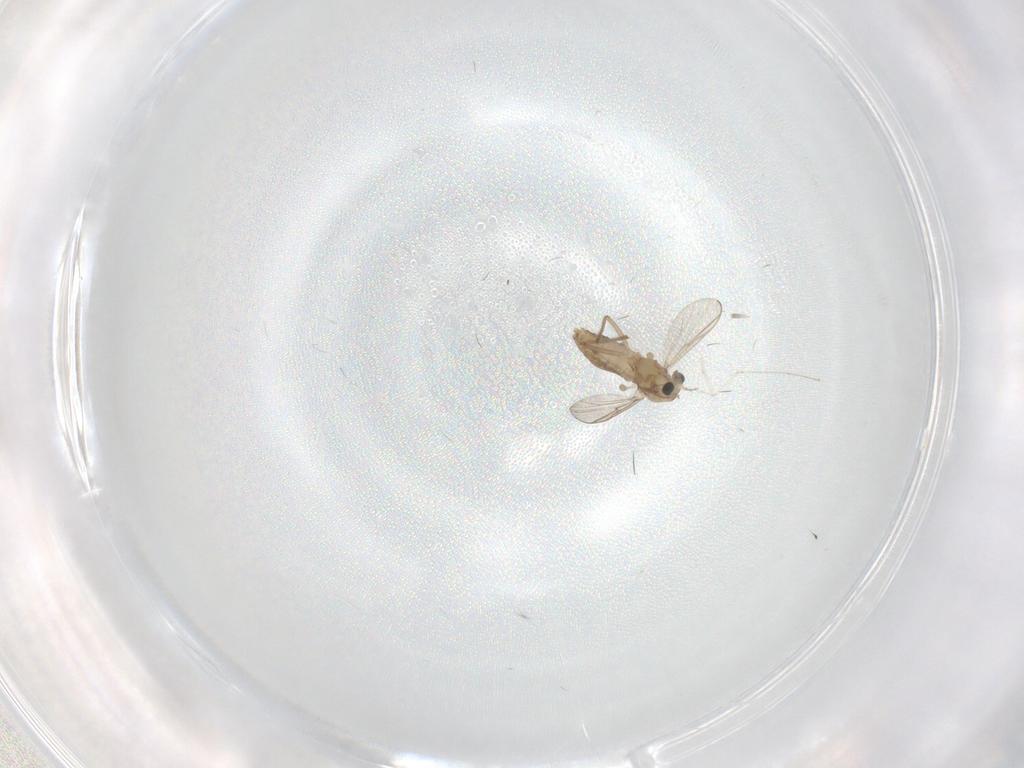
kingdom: Animalia
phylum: Arthropoda
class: Insecta
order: Diptera
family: Chironomidae
